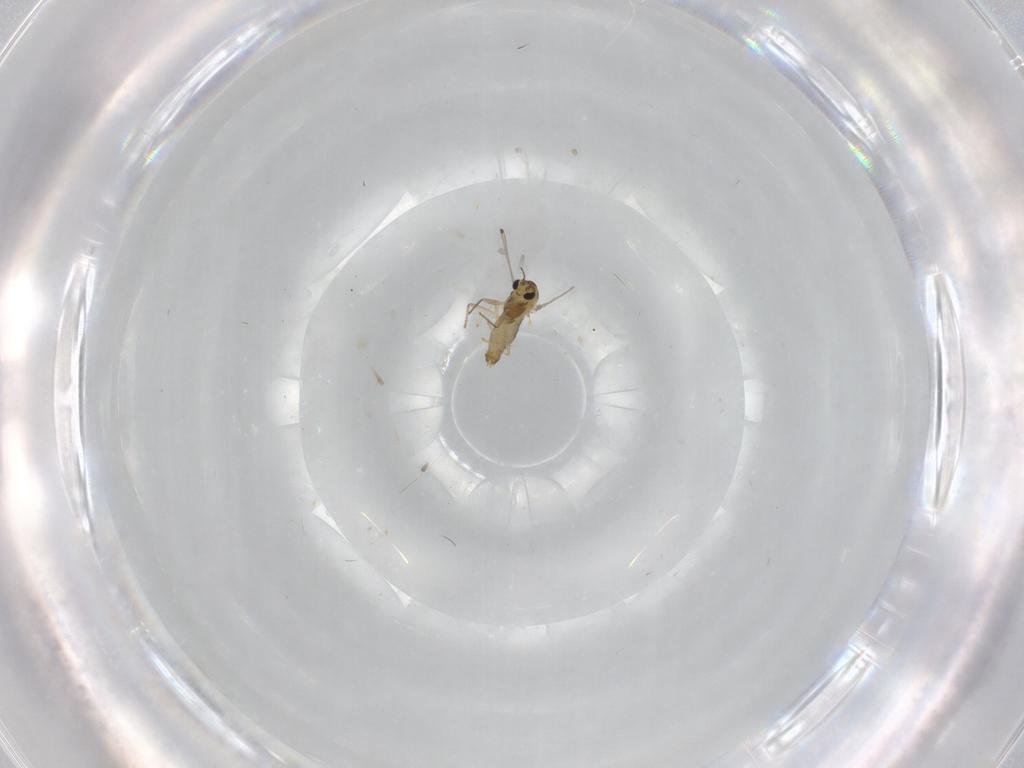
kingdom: Animalia
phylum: Arthropoda
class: Insecta
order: Diptera
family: Chironomidae
